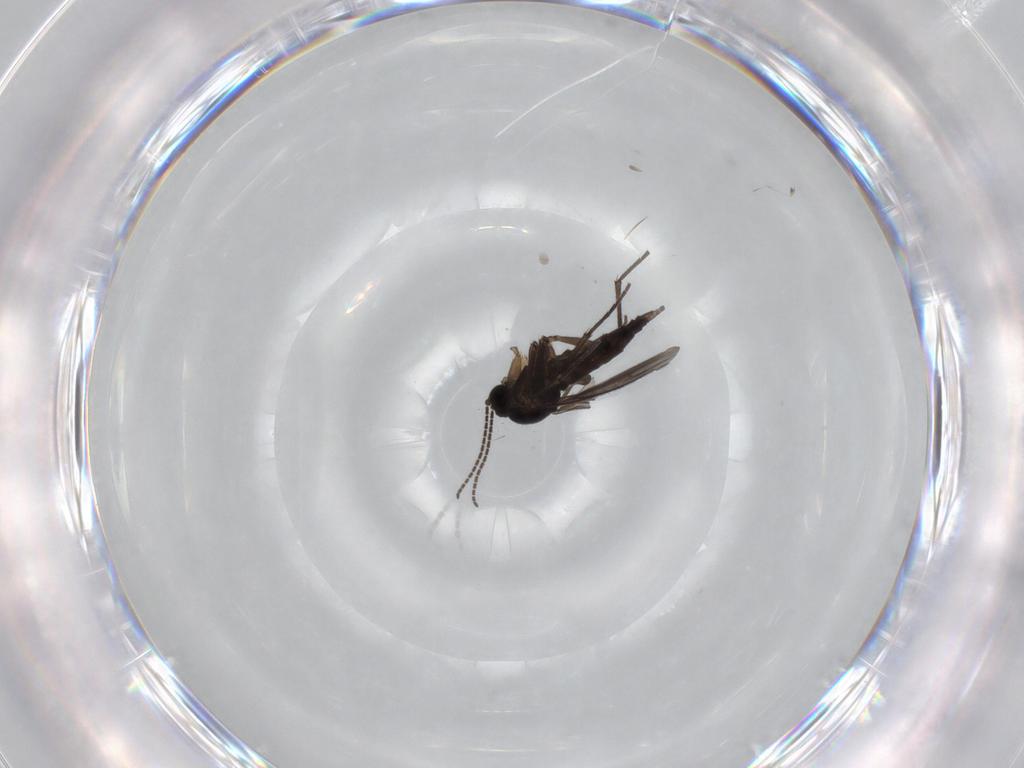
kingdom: Animalia
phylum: Arthropoda
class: Insecta
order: Diptera
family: Sciaridae
